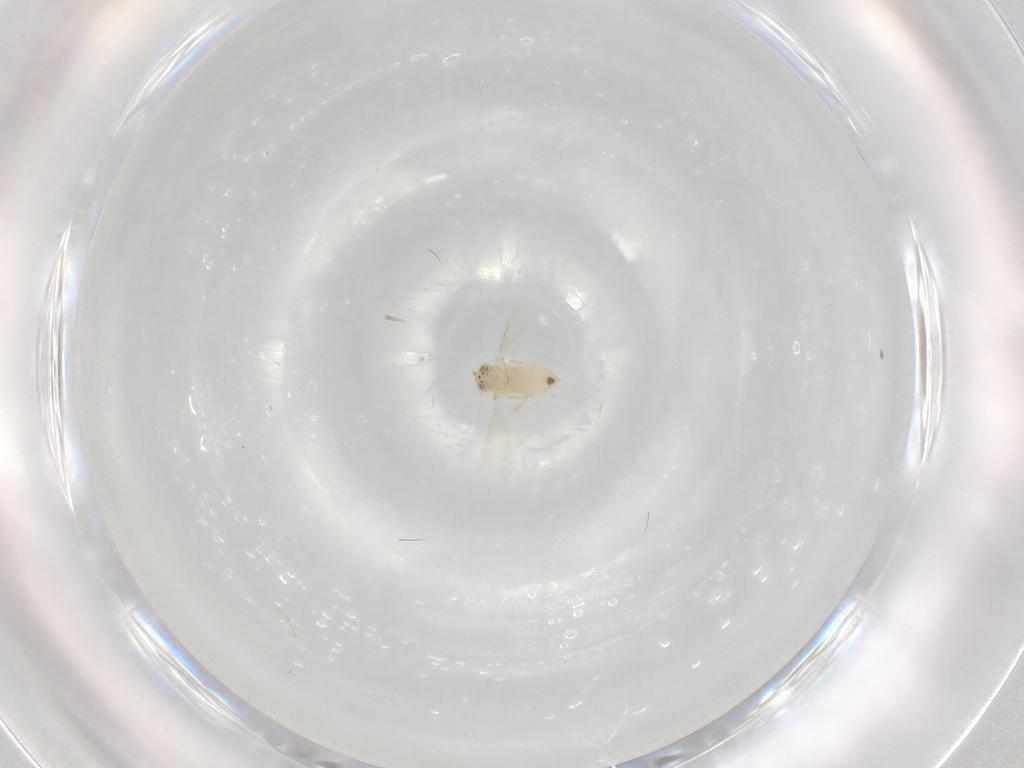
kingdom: Animalia
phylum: Arthropoda
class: Insecta
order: Hymenoptera
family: Aphelinidae
